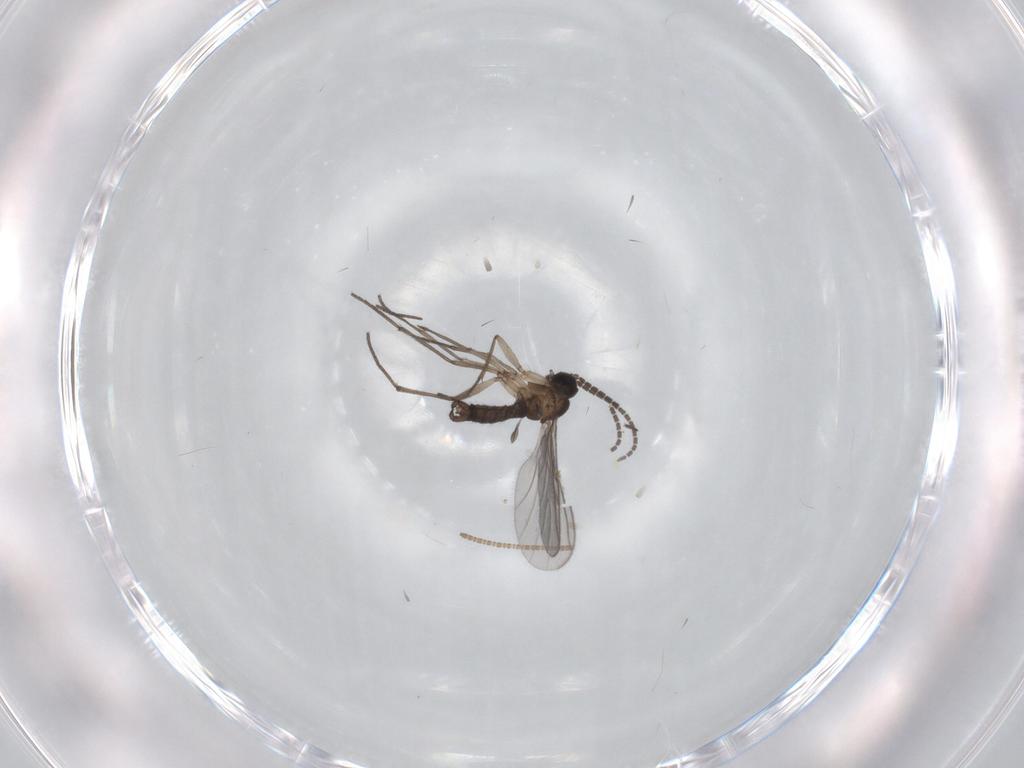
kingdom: Animalia
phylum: Arthropoda
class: Insecta
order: Diptera
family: Sciaridae
